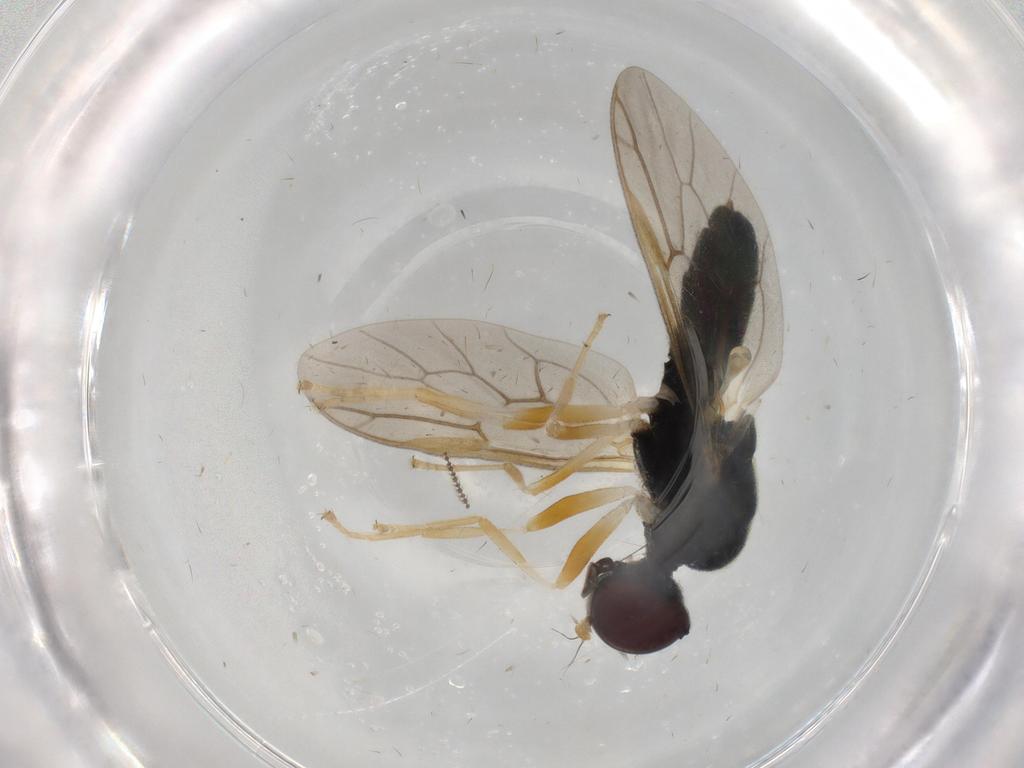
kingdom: Animalia
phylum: Arthropoda
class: Insecta
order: Diptera
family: Stratiomyidae
